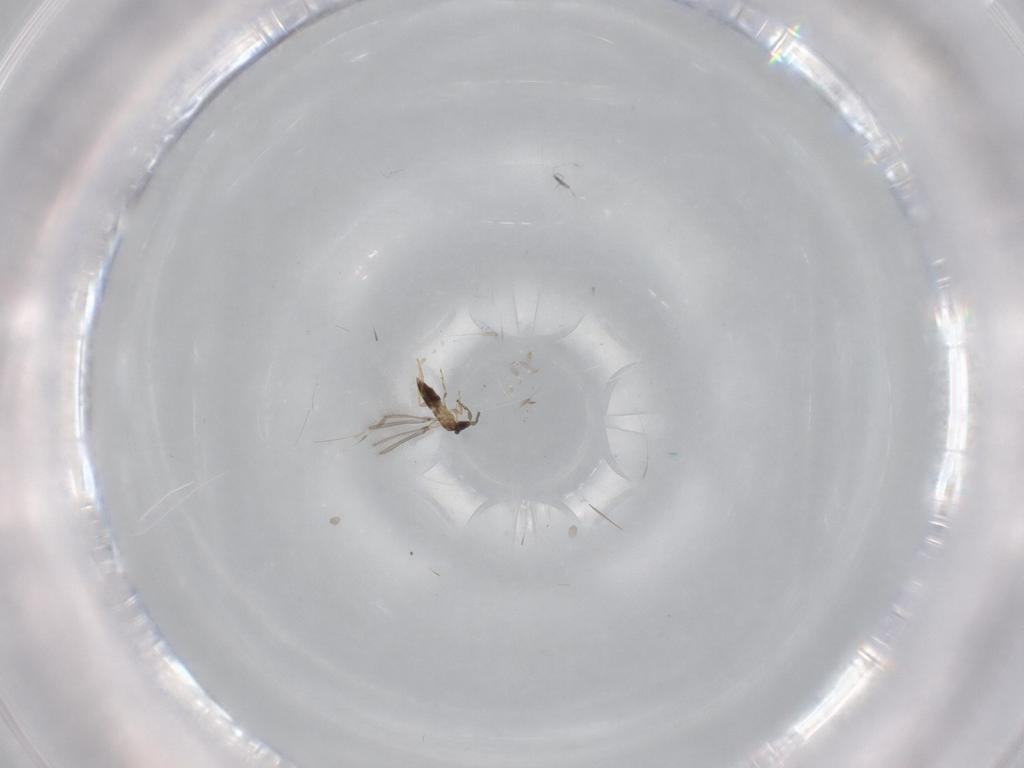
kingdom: Animalia
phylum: Arthropoda
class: Insecta
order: Hymenoptera
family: Mymaridae
